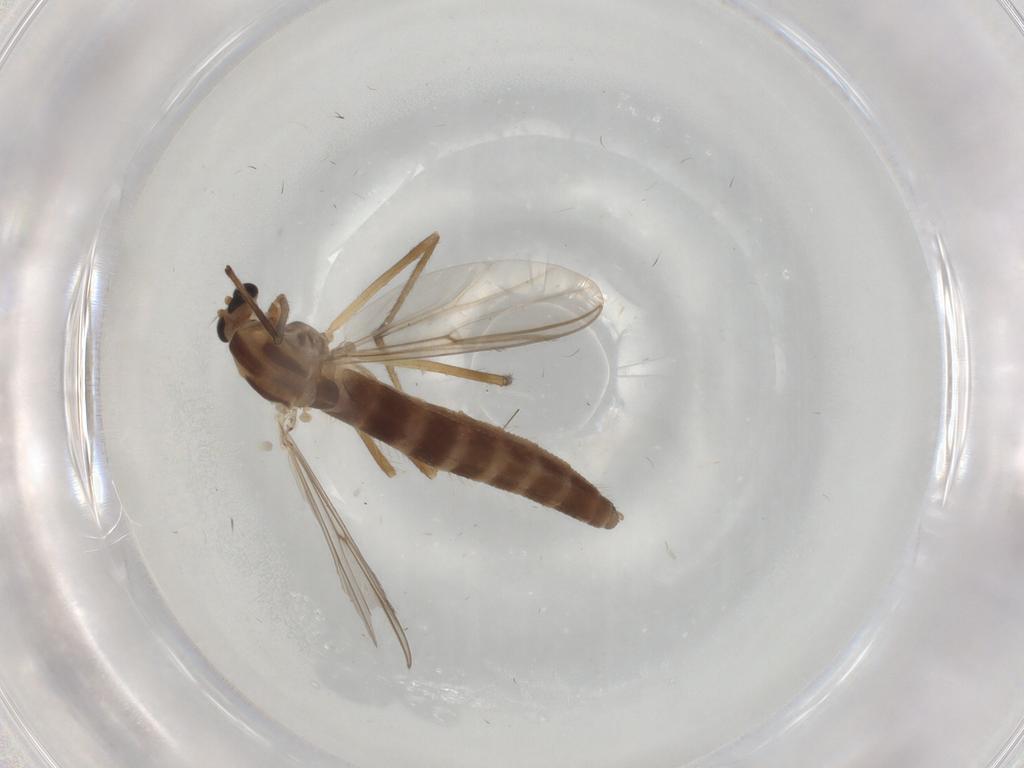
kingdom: Animalia
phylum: Arthropoda
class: Insecta
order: Diptera
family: Chironomidae
